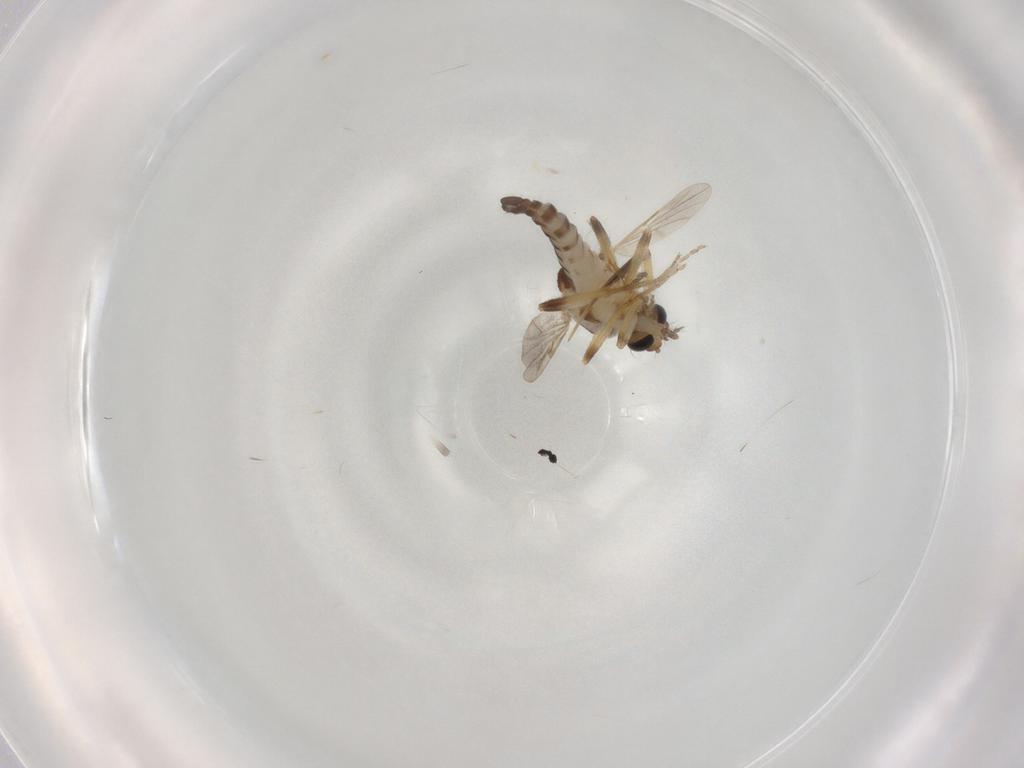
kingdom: Animalia
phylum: Arthropoda
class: Insecta
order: Diptera
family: Ceratopogonidae
